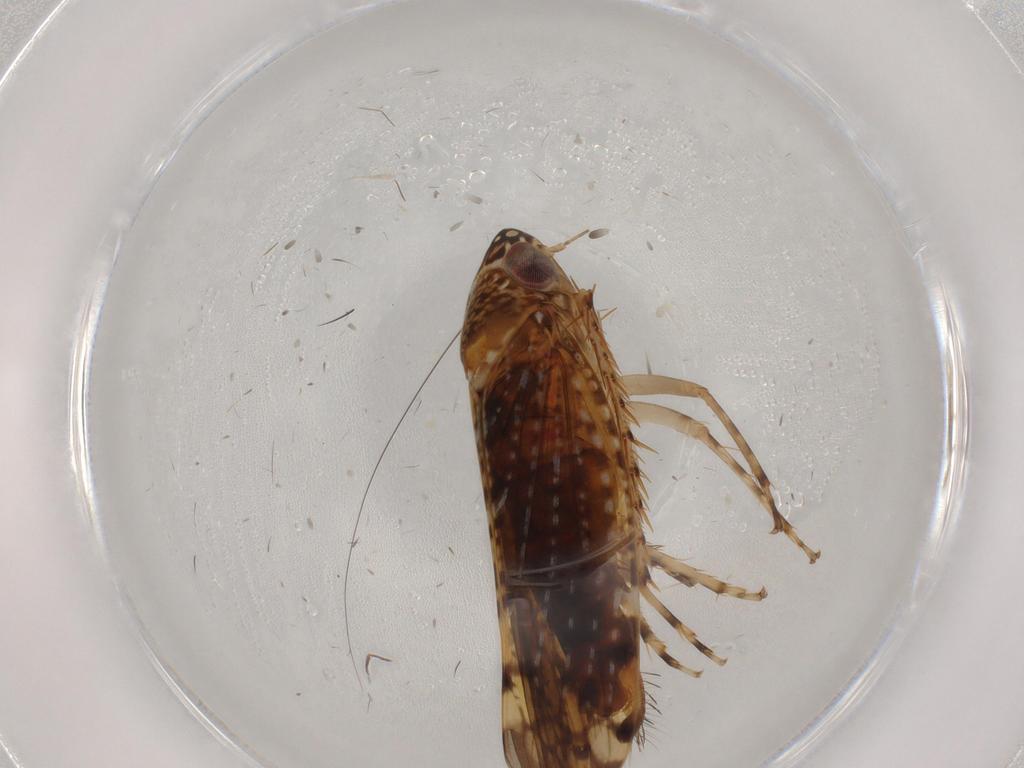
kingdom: Animalia
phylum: Arthropoda
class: Insecta
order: Hemiptera
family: Cicadellidae
